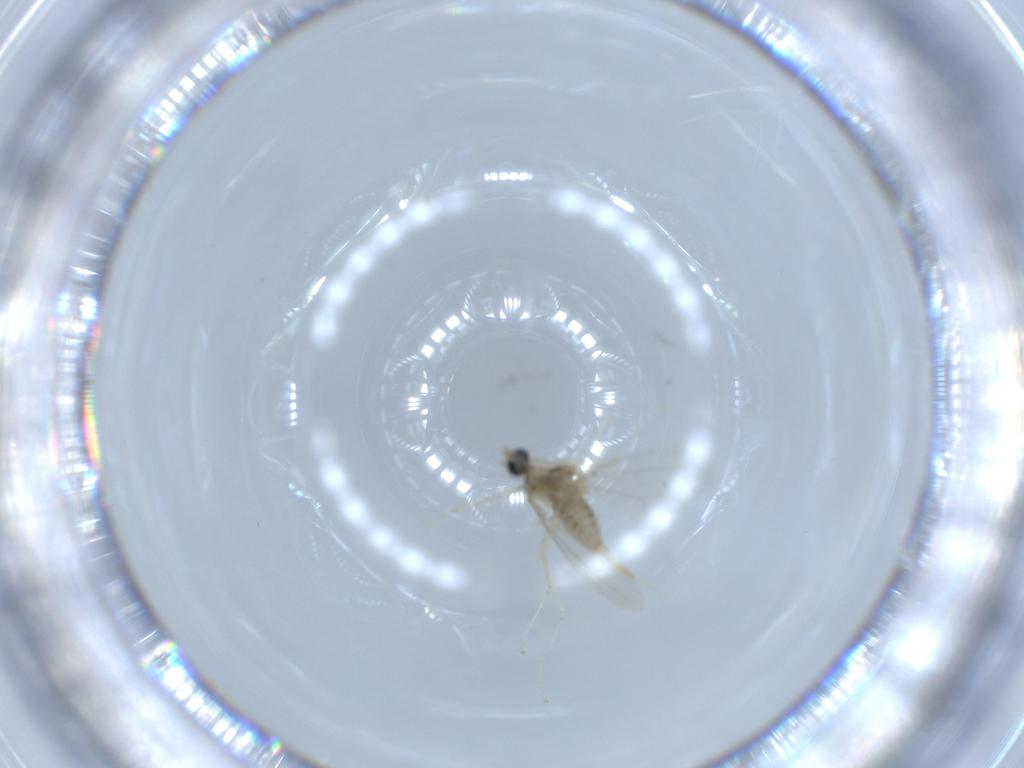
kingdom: Animalia
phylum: Arthropoda
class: Insecta
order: Diptera
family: Cecidomyiidae
